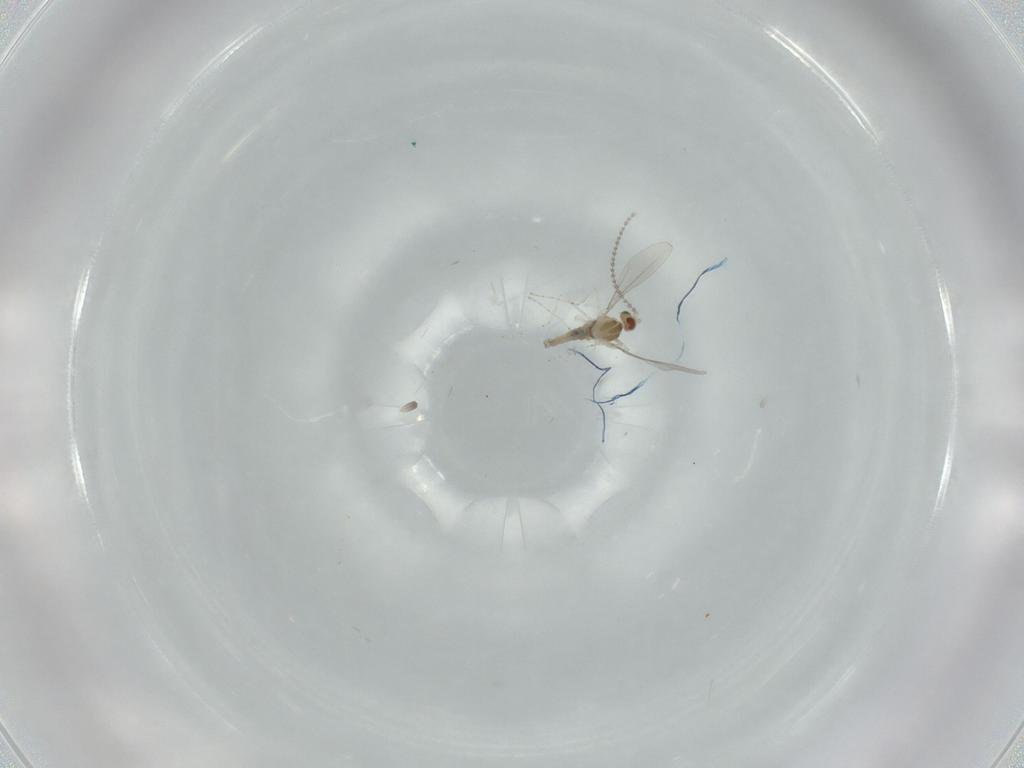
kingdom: Animalia
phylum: Arthropoda
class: Insecta
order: Diptera
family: Cecidomyiidae
